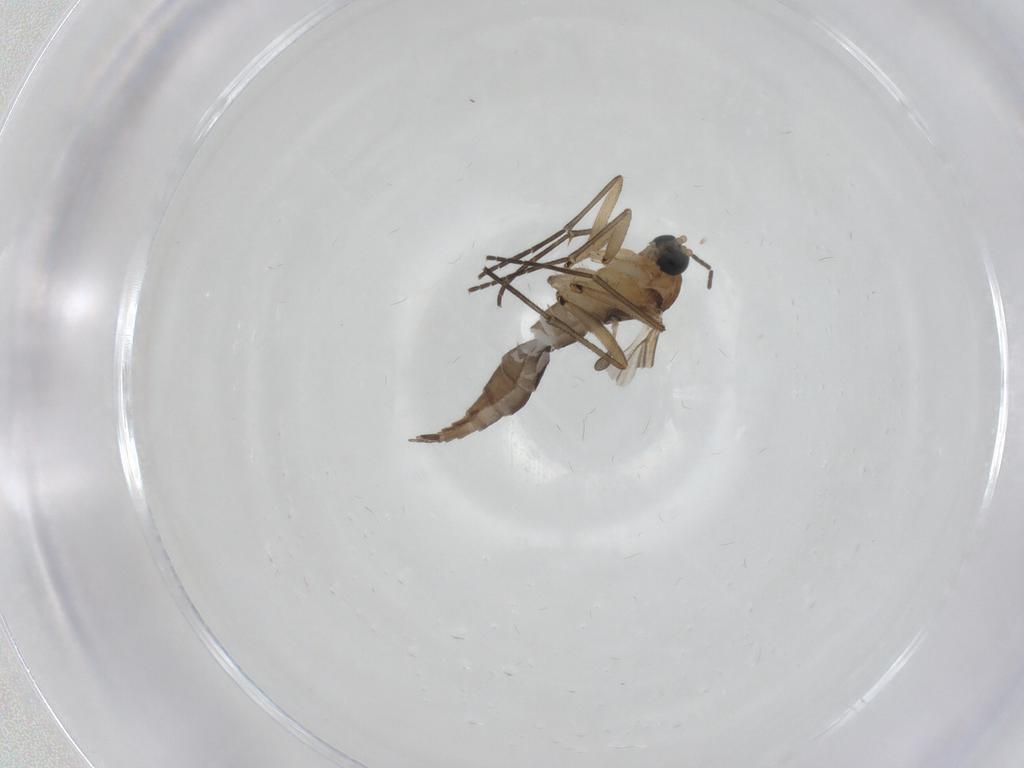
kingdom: Animalia
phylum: Arthropoda
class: Insecta
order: Diptera
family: Sciaridae
